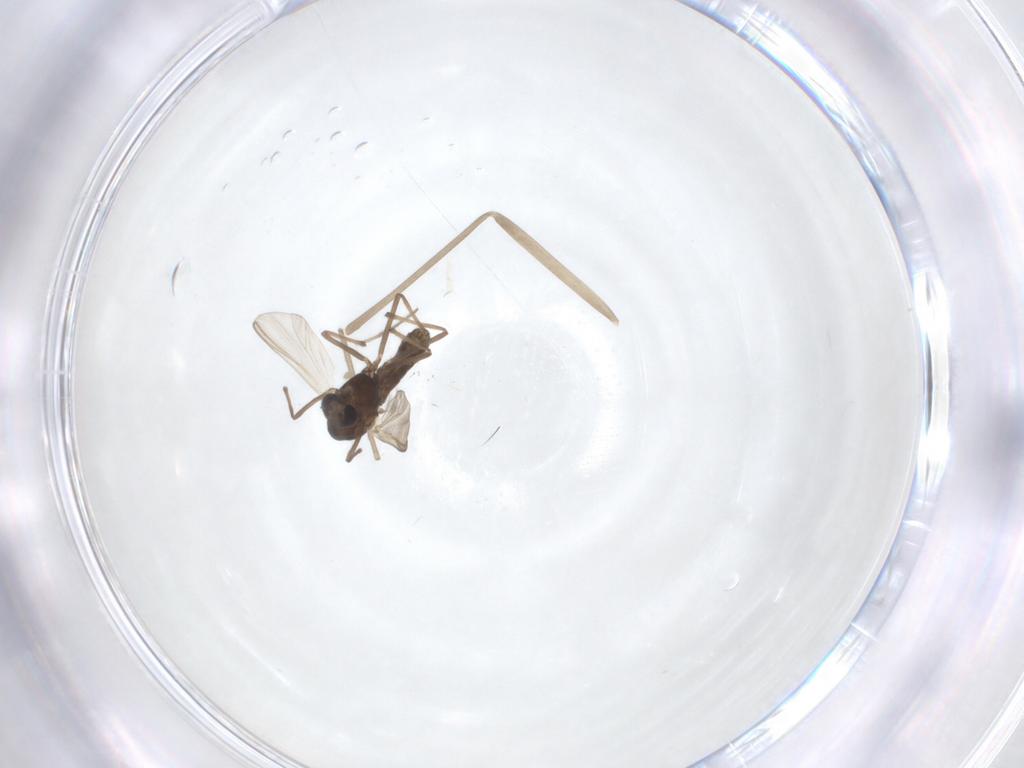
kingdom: Animalia
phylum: Arthropoda
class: Insecta
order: Diptera
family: Chironomidae
